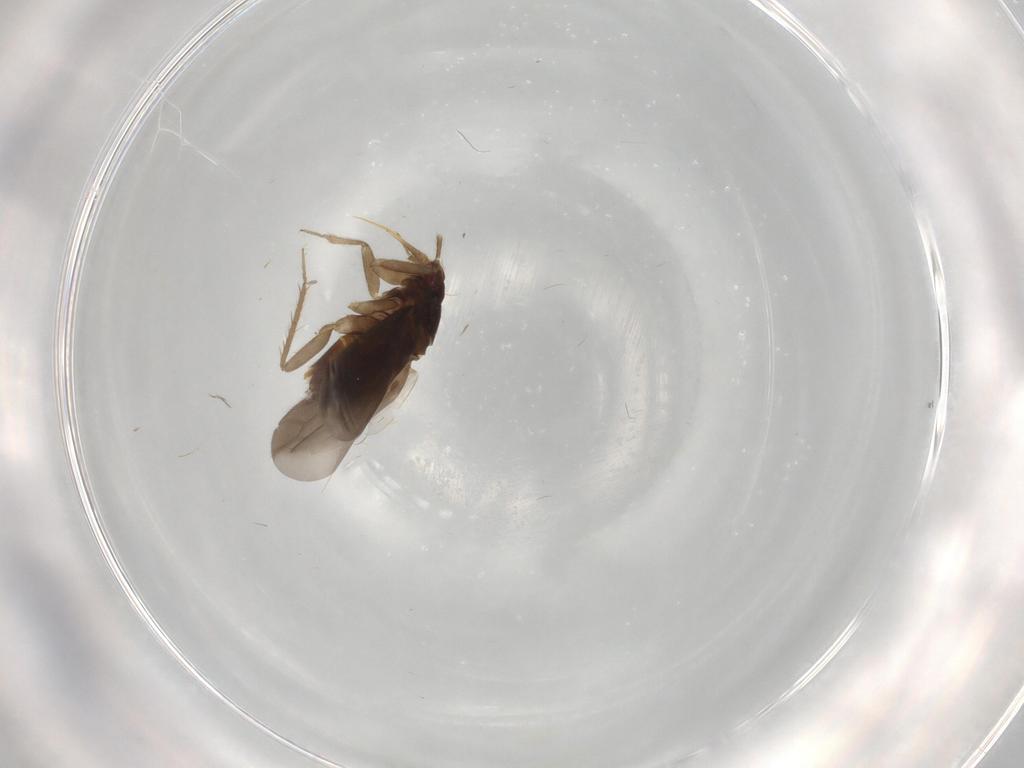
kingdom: Animalia
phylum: Arthropoda
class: Insecta
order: Hemiptera
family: Ceratocombidae
